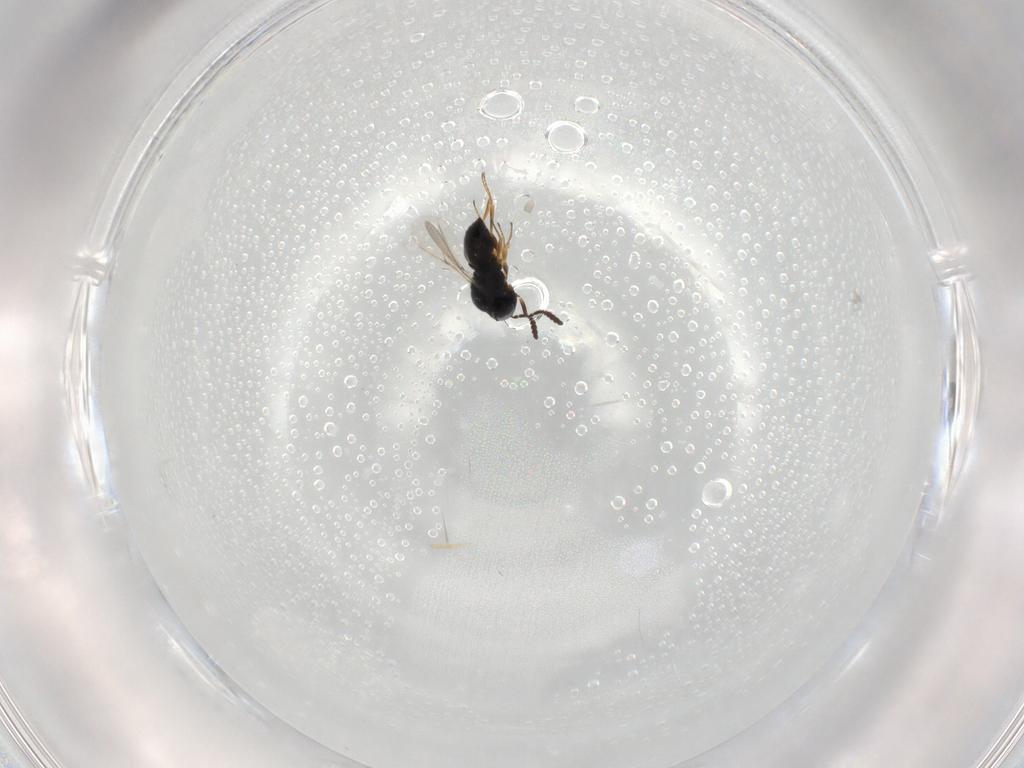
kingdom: Animalia
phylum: Arthropoda
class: Insecta
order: Hymenoptera
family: Scelionidae
